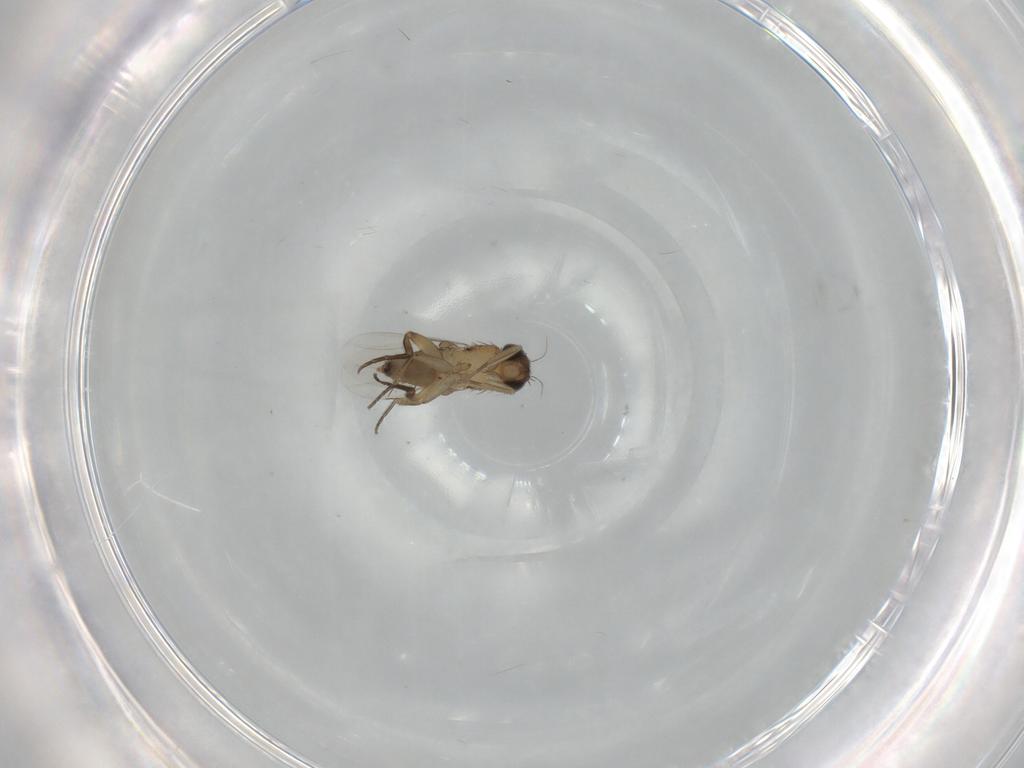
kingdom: Animalia
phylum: Arthropoda
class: Insecta
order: Diptera
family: Phoridae
